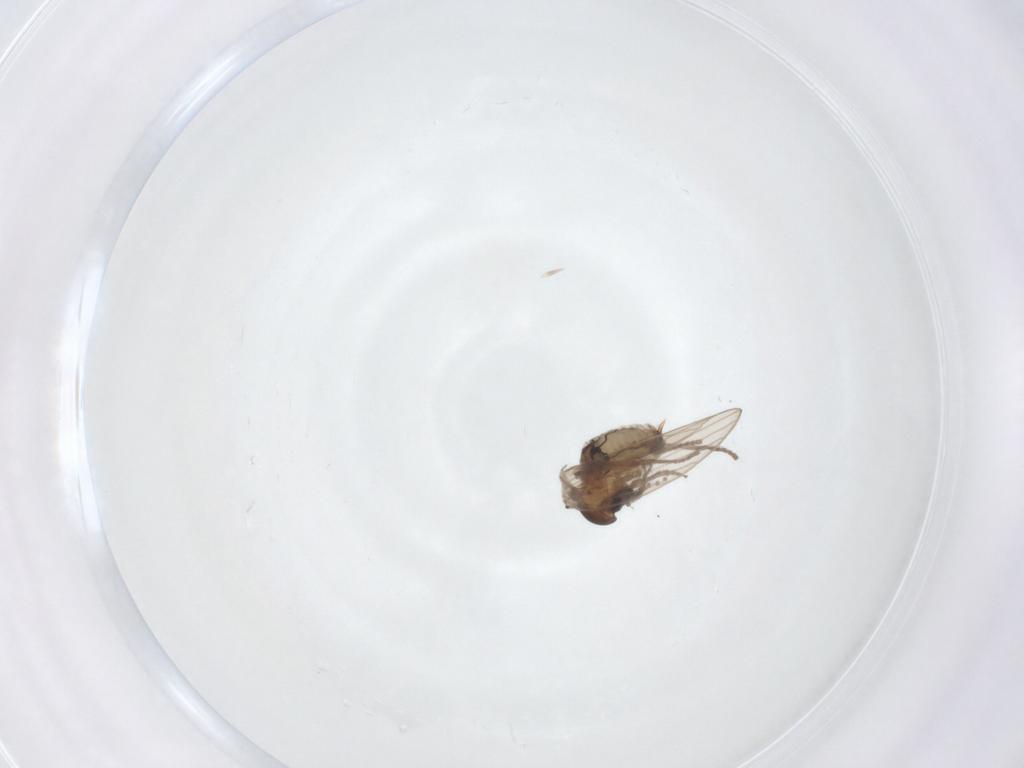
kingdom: Animalia
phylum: Arthropoda
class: Insecta
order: Diptera
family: Psychodidae
